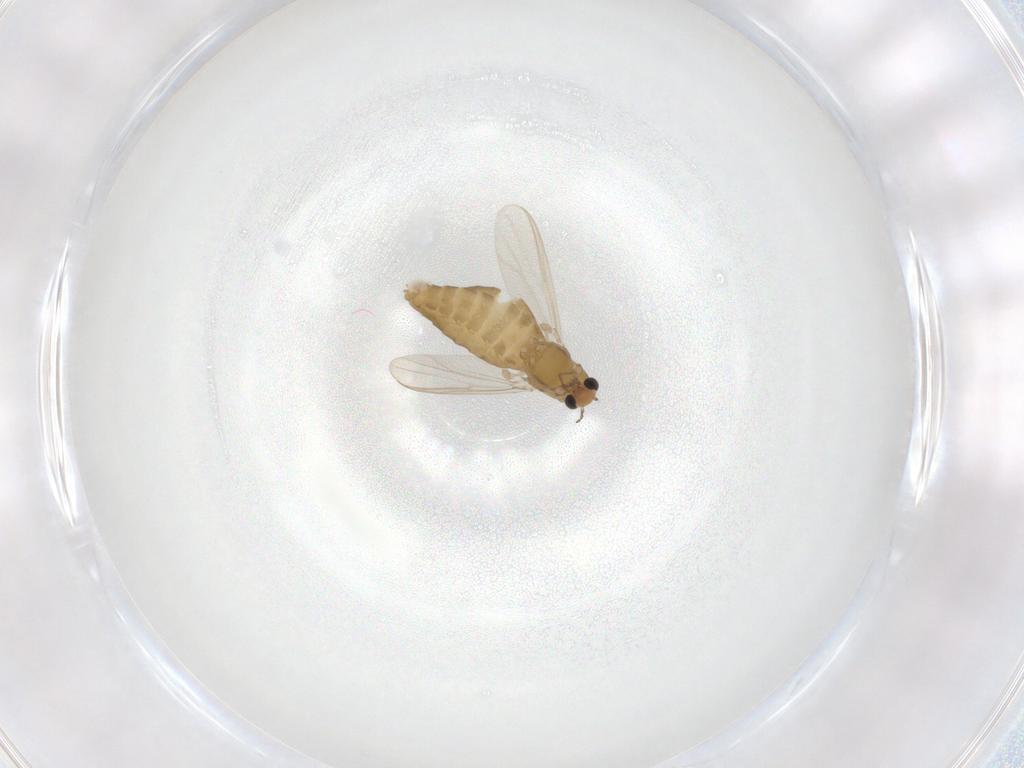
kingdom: Animalia
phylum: Arthropoda
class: Insecta
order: Diptera
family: Chironomidae
